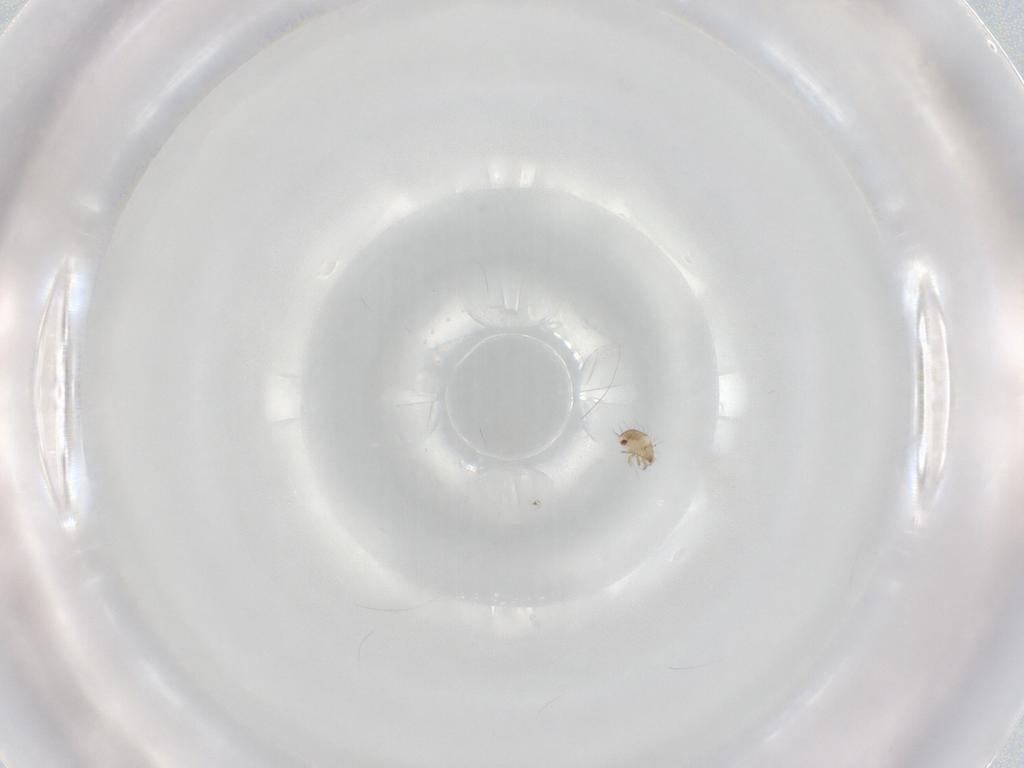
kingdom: Animalia
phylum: Arthropoda
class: Arachnida
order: Sarcoptiformes
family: Humerobatidae
